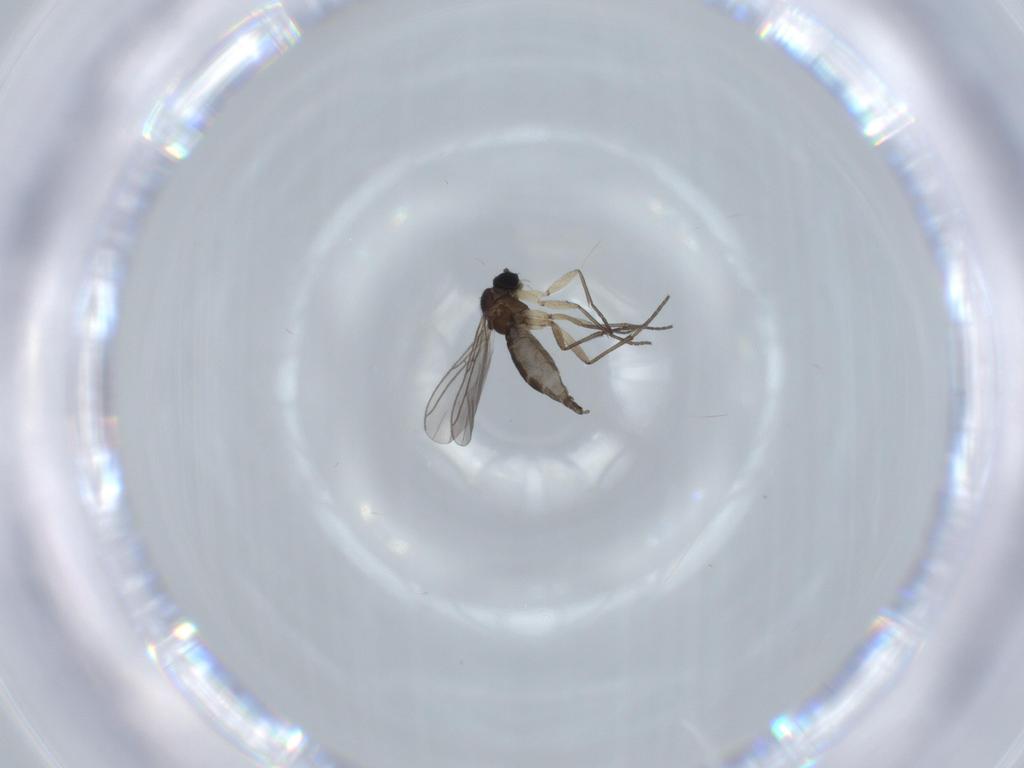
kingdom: Animalia
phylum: Arthropoda
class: Insecta
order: Diptera
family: Sciaridae
